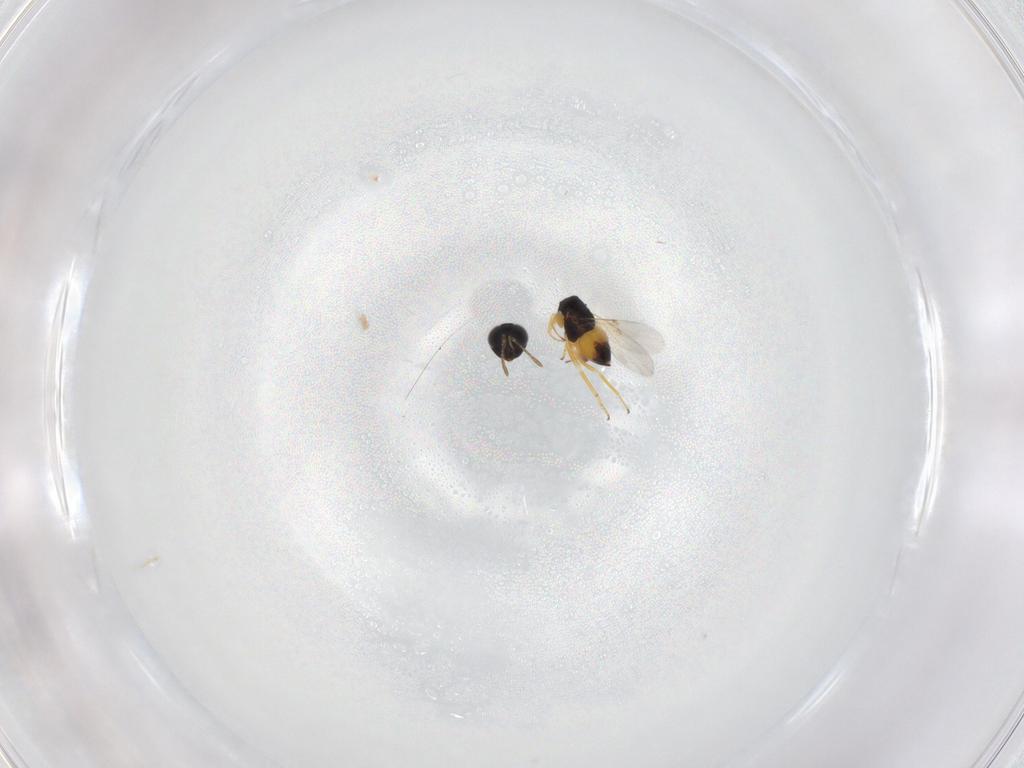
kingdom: Animalia
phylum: Arthropoda
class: Insecta
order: Hymenoptera
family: Encyrtidae
